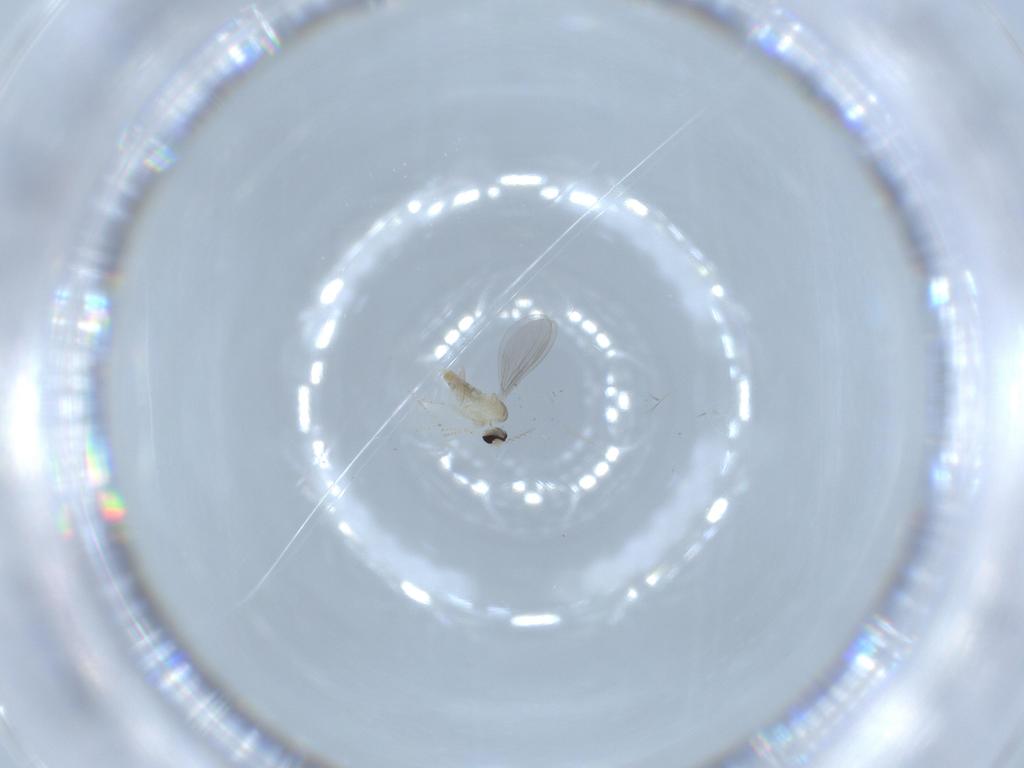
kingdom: Animalia
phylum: Arthropoda
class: Insecta
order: Diptera
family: Cecidomyiidae
